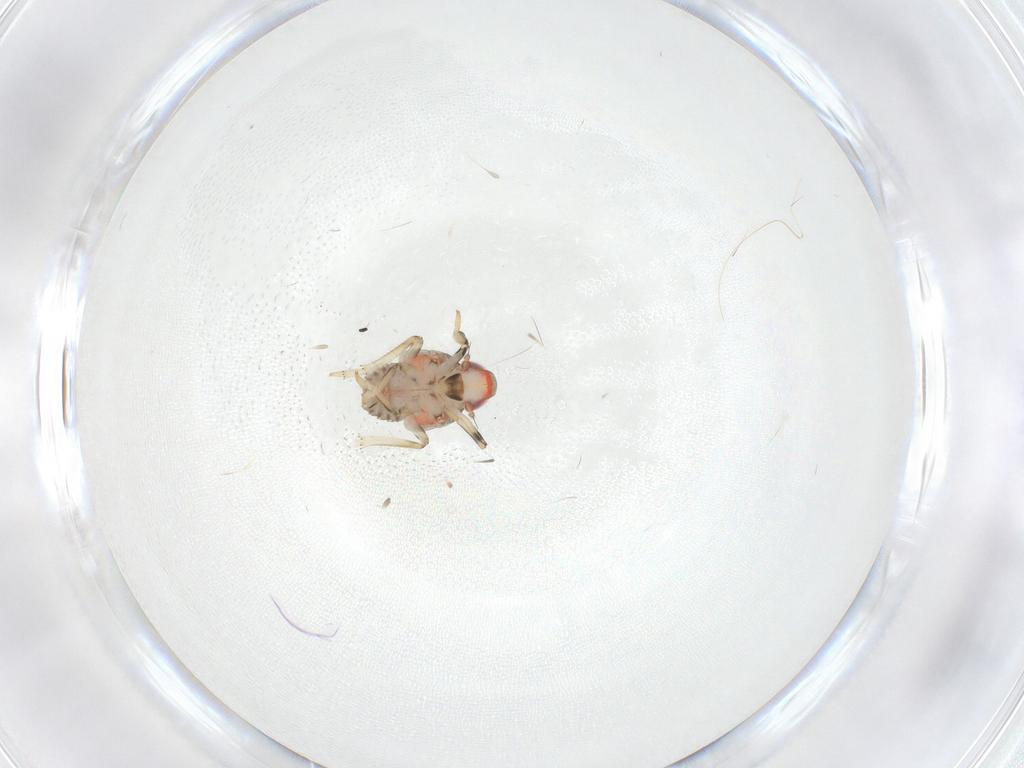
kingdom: Animalia
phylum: Arthropoda
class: Insecta
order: Hemiptera
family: Issidae
